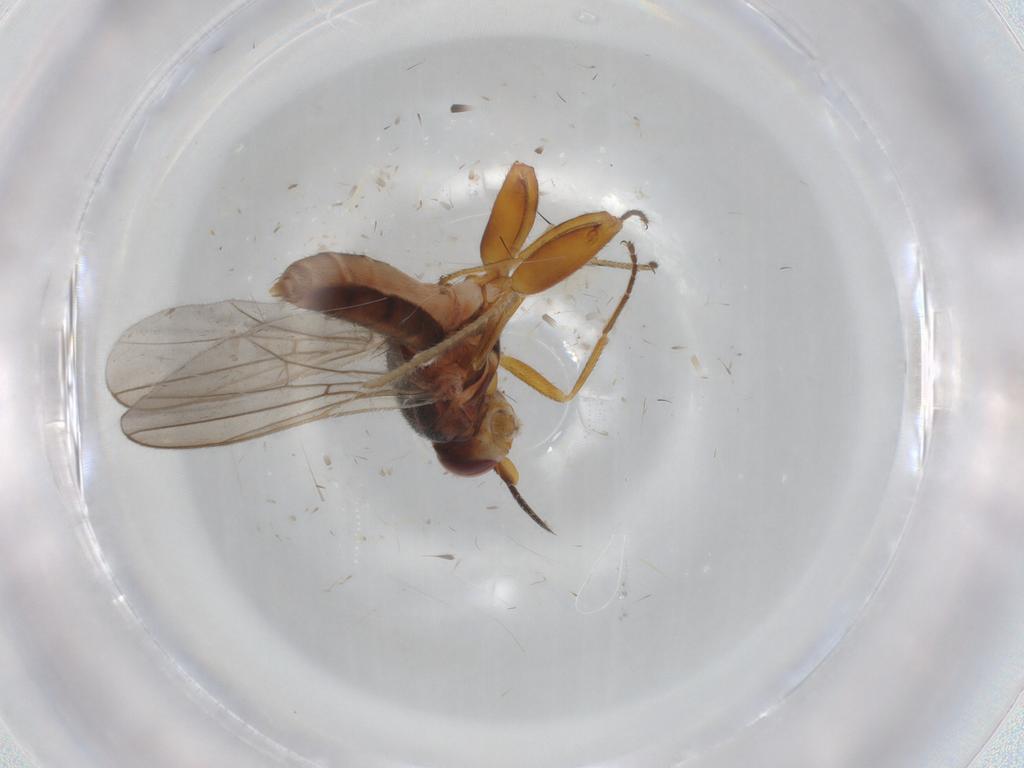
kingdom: Animalia
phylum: Arthropoda
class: Insecta
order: Diptera
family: Chloropidae
